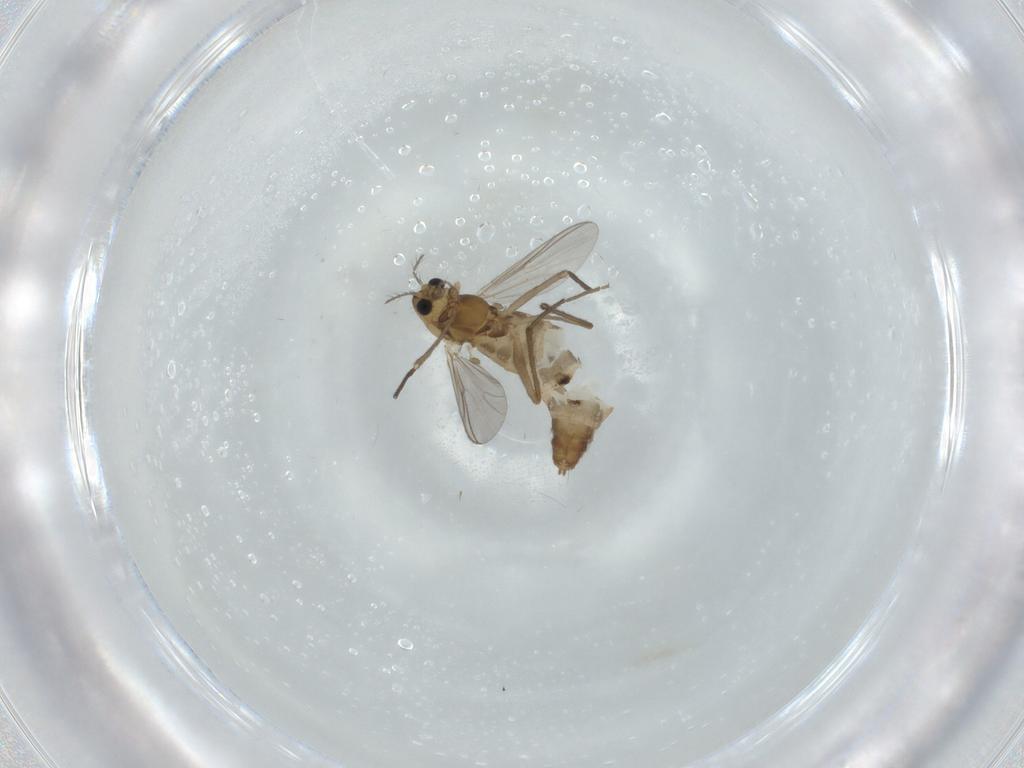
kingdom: Animalia
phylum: Arthropoda
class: Insecta
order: Diptera
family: Chironomidae
